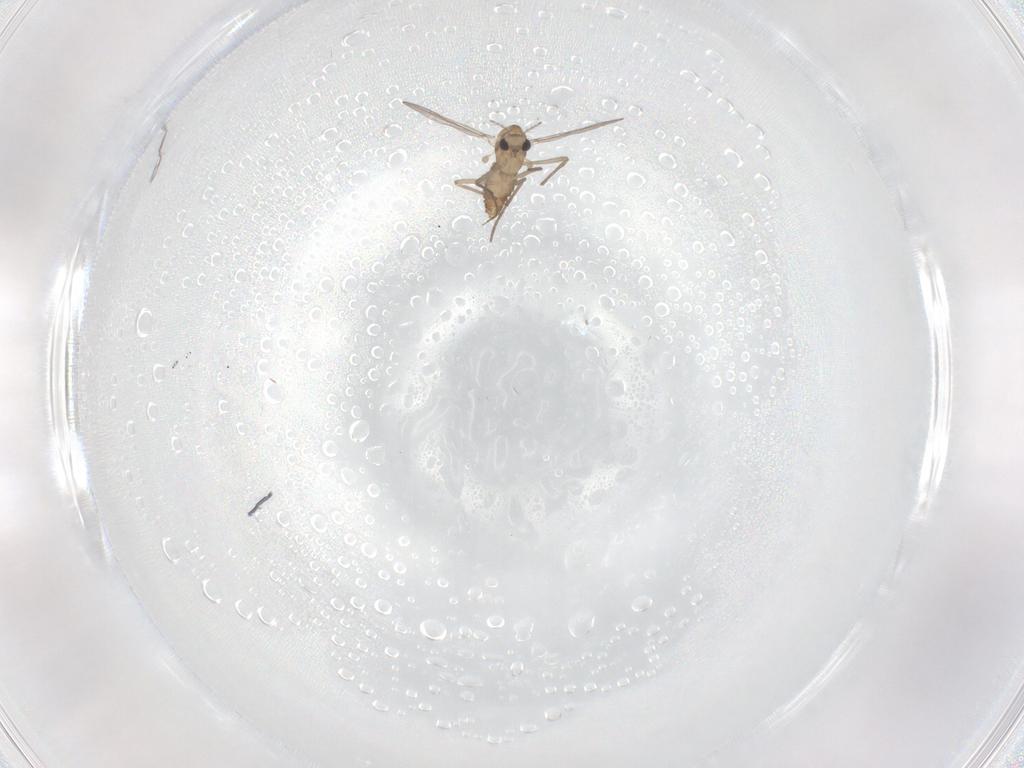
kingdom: Animalia
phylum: Arthropoda
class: Insecta
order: Diptera
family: Chironomidae
